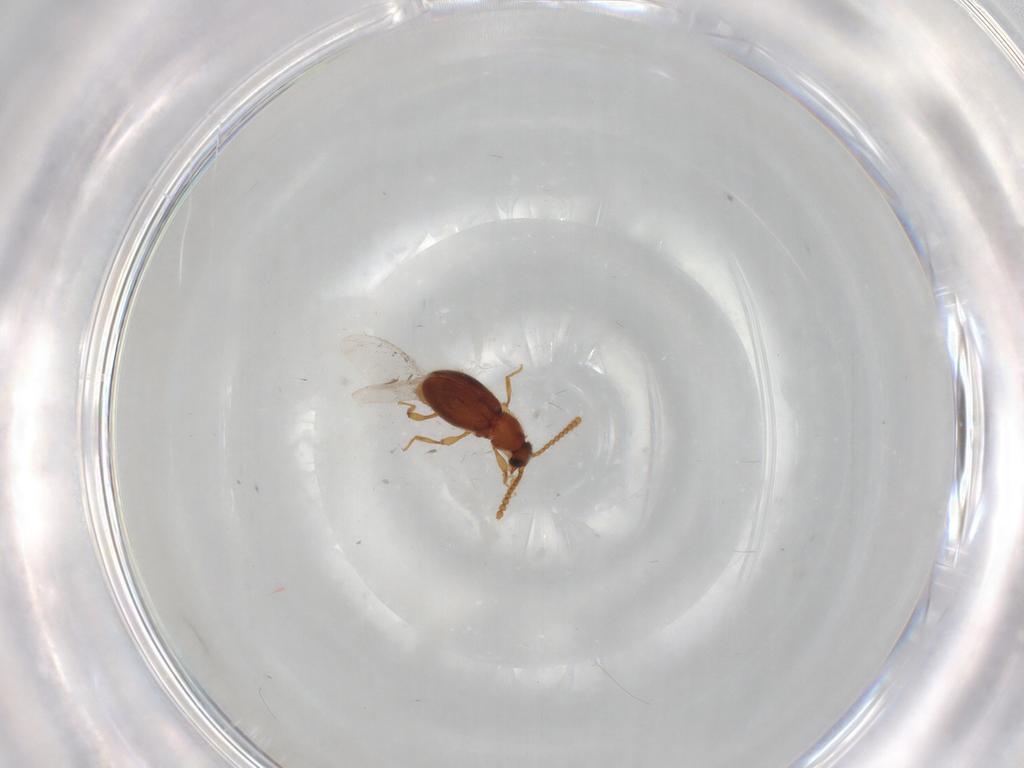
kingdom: Animalia
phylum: Arthropoda
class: Insecta
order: Coleoptera
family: Staphylinidae
